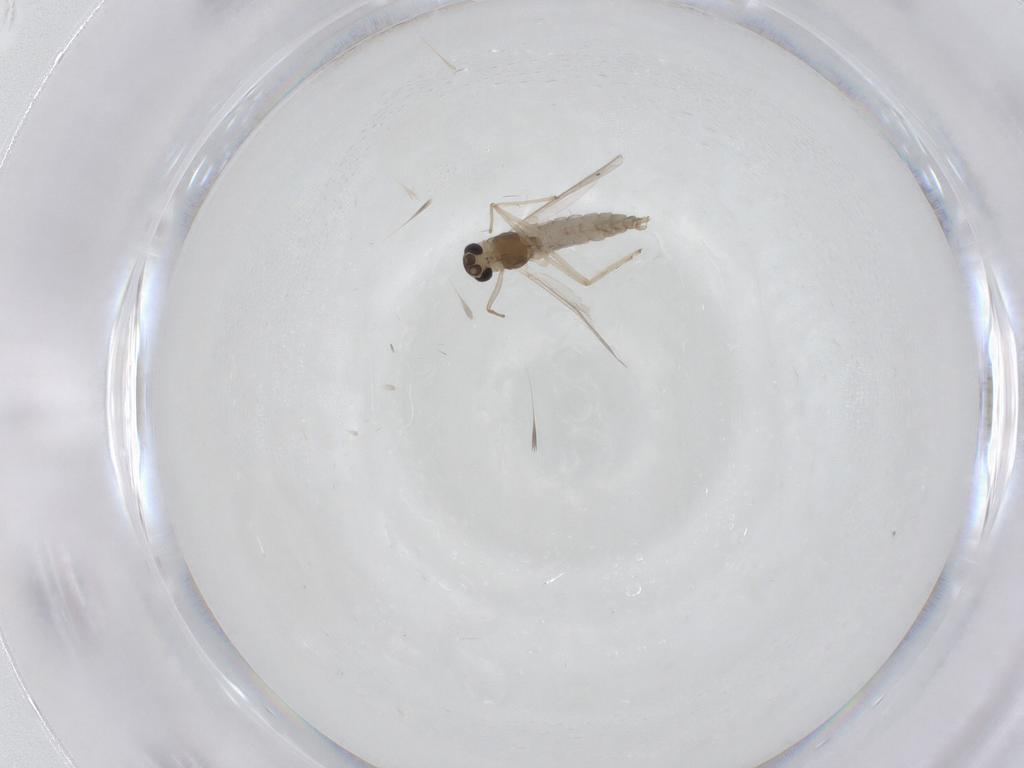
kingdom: Animalia
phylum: Arthropoda
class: Insecta
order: Diptera
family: Chironomidae
